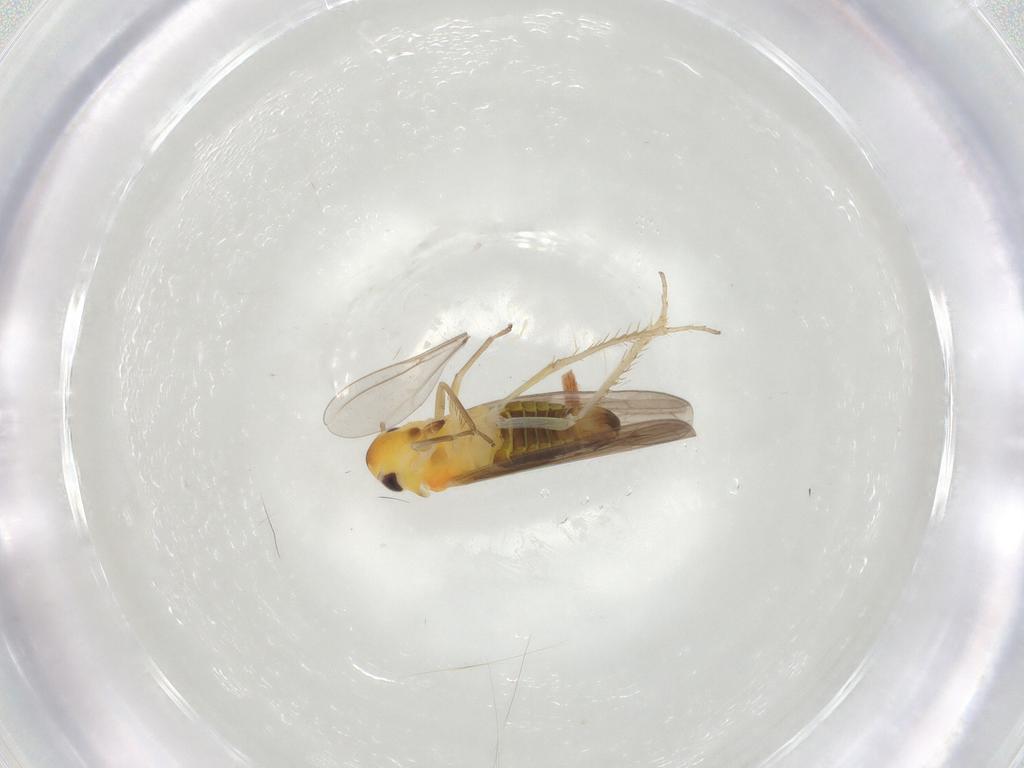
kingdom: Animalia
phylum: Arthropoda
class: Insecta
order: Hemiptera
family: Cicadellidae
